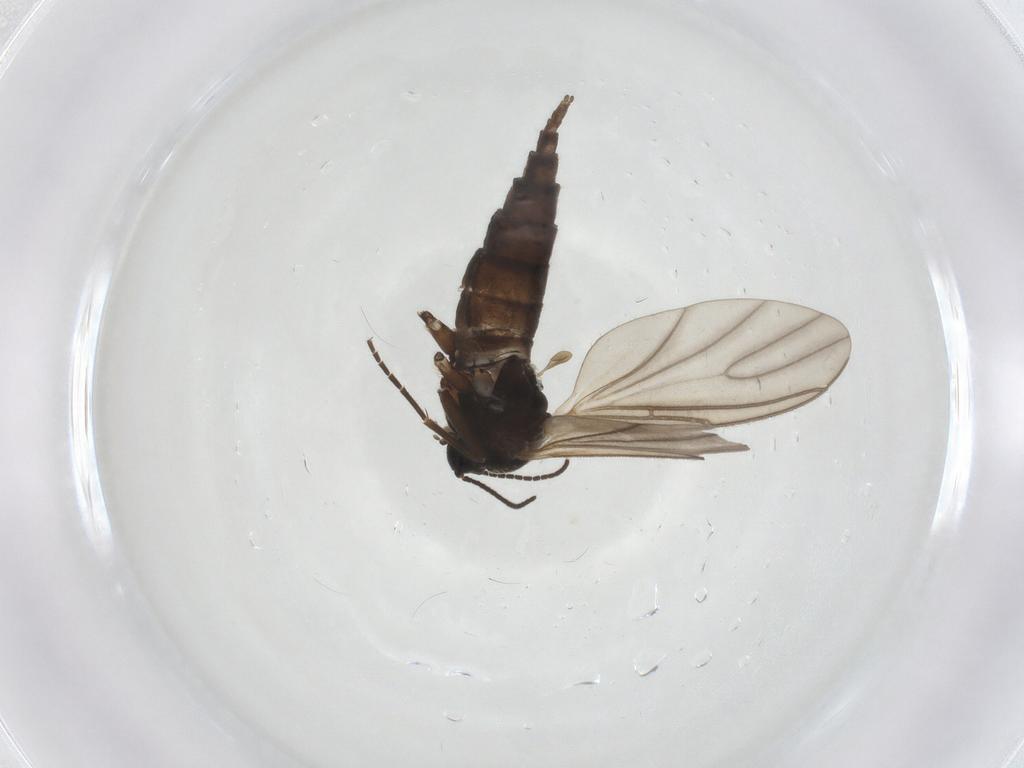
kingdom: Animalia
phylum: Arthropoda
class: Insecta
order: Diptera
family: Sciaridae
